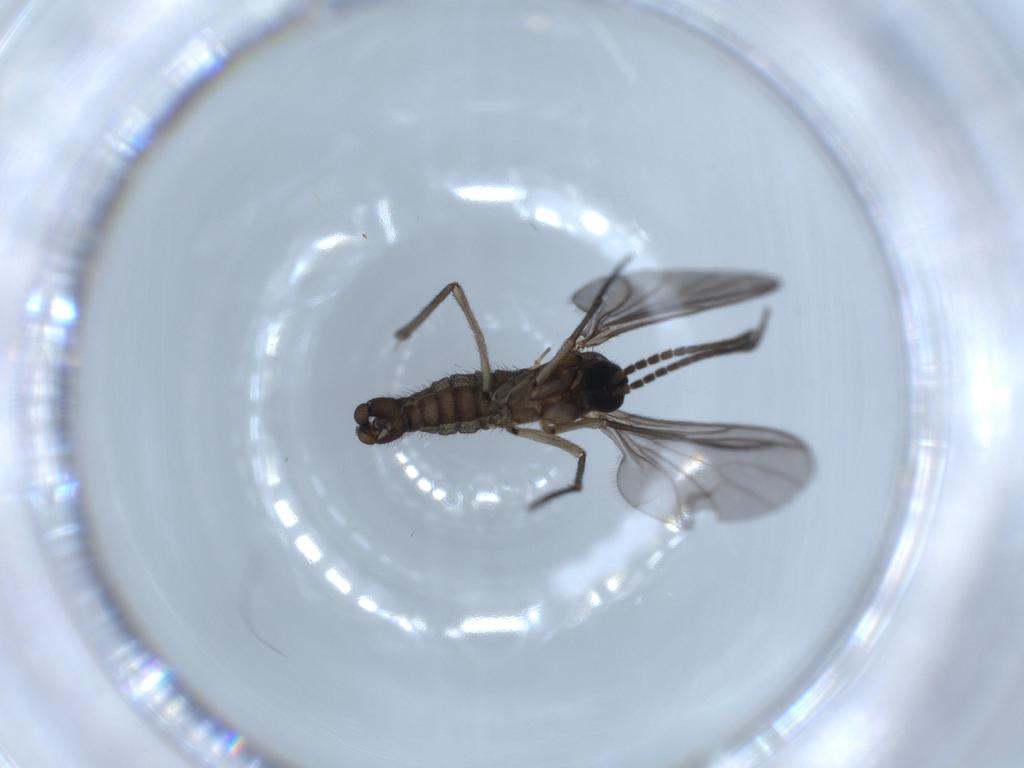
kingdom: Animalia
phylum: Arthropoda
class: Insecta
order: Diptera
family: Sciaridae
